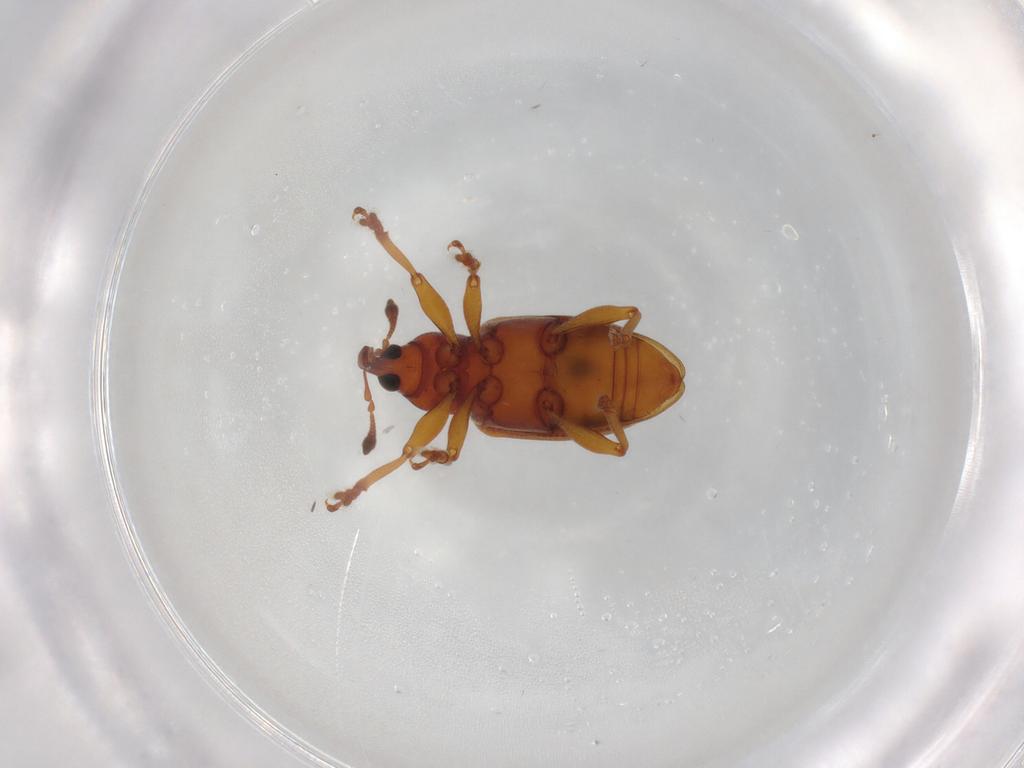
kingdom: Animalia
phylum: Arthropoda
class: Insecta
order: Coleoptera
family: Curculionidae
